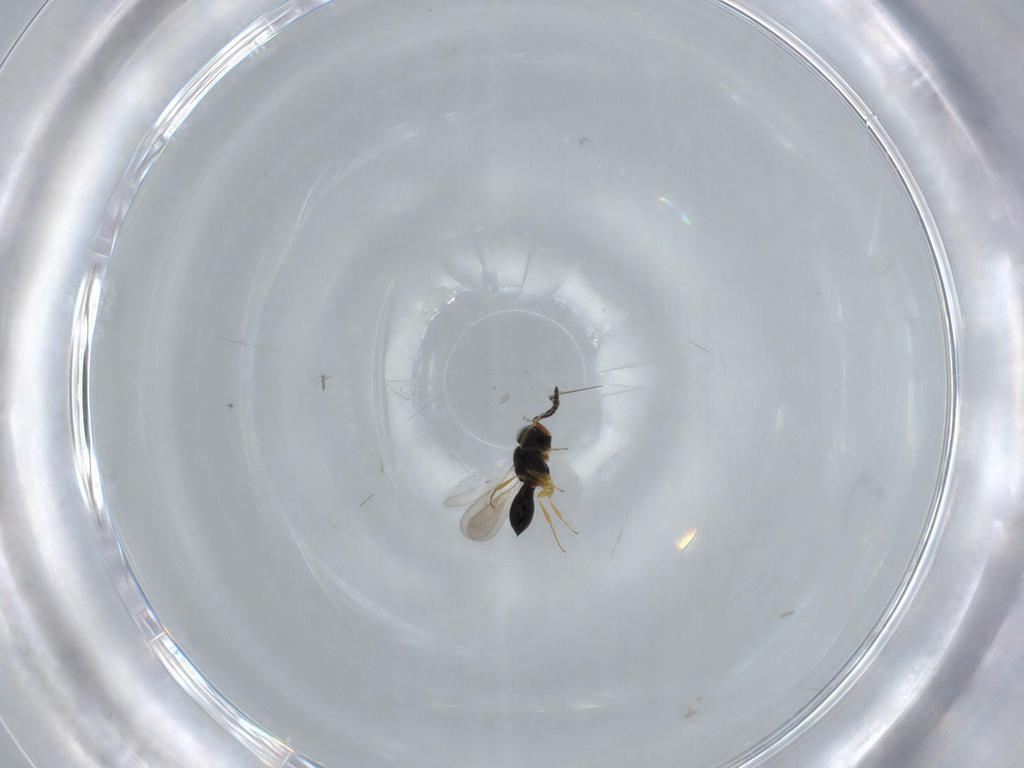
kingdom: Animalia
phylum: Arthropoda
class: Insecta
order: Hymenoptera
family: Scelionidae
